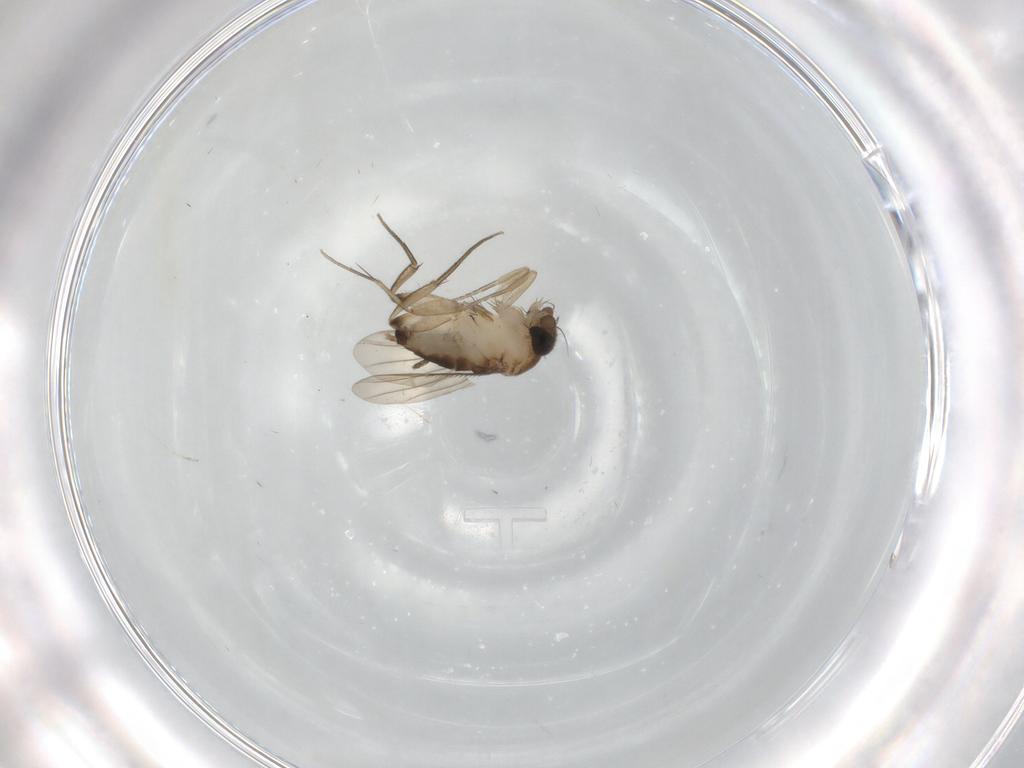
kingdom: Animalia
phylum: Arthropoda
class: Insecta
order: Diptera
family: Phoridae
